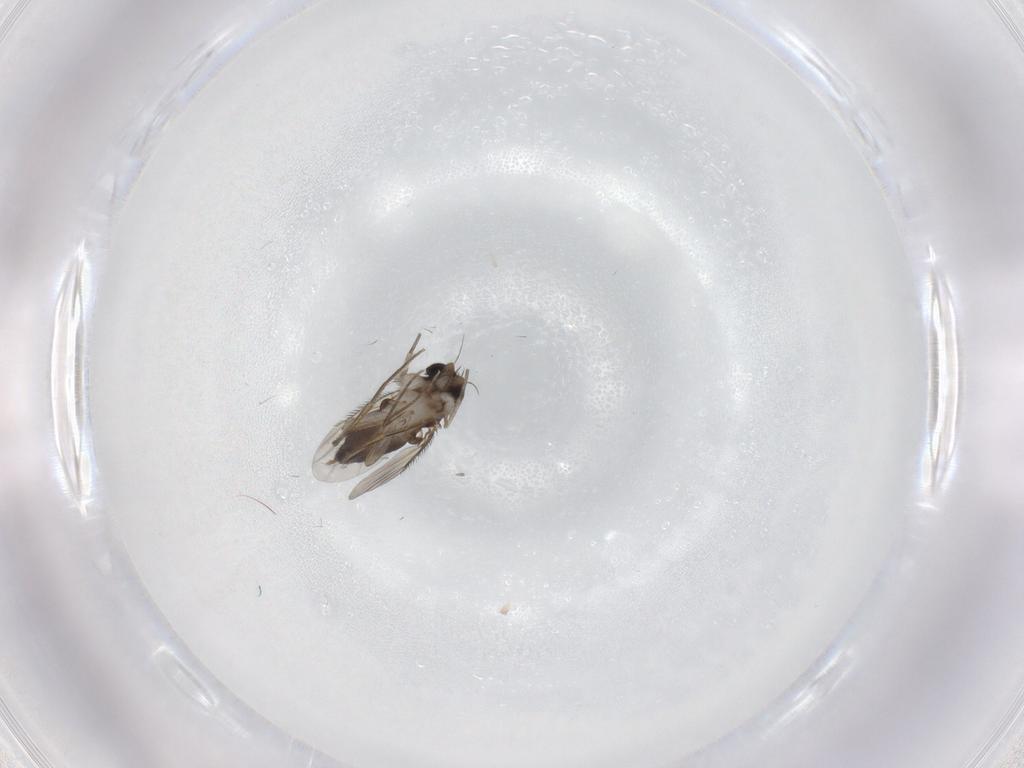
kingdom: Animalia
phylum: Arthropoda
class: Insecta
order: Diptera
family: Phoridae
